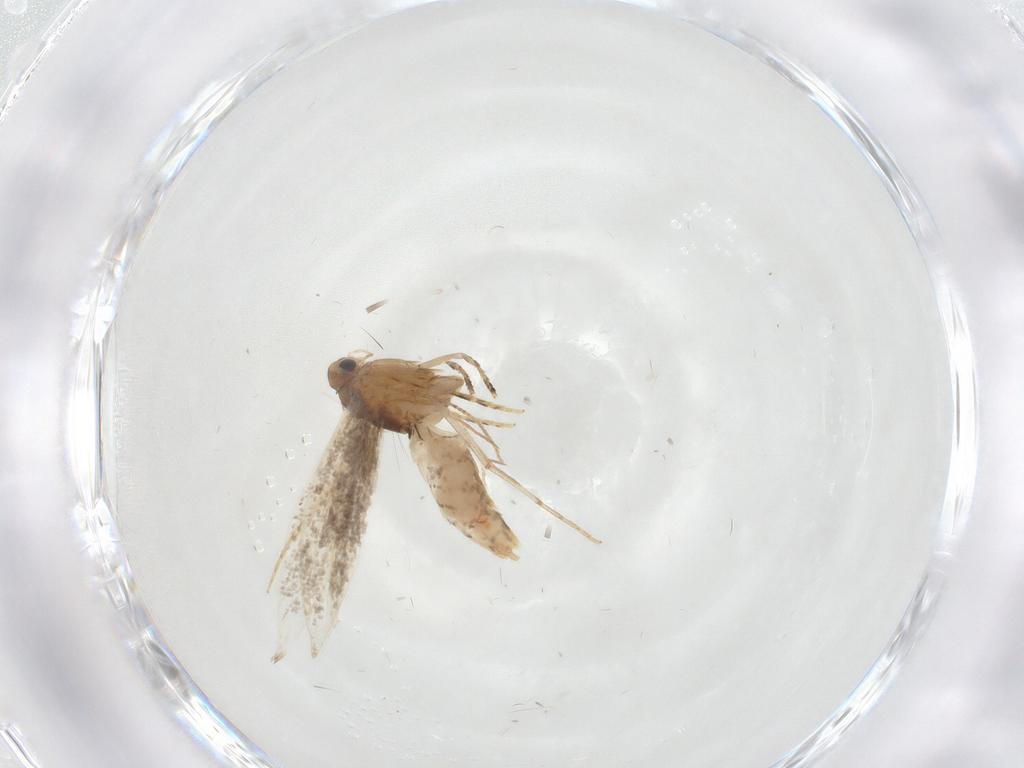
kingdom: Animalia
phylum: Arthropoda
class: Insecta
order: Lepidoptera
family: Tineidae
